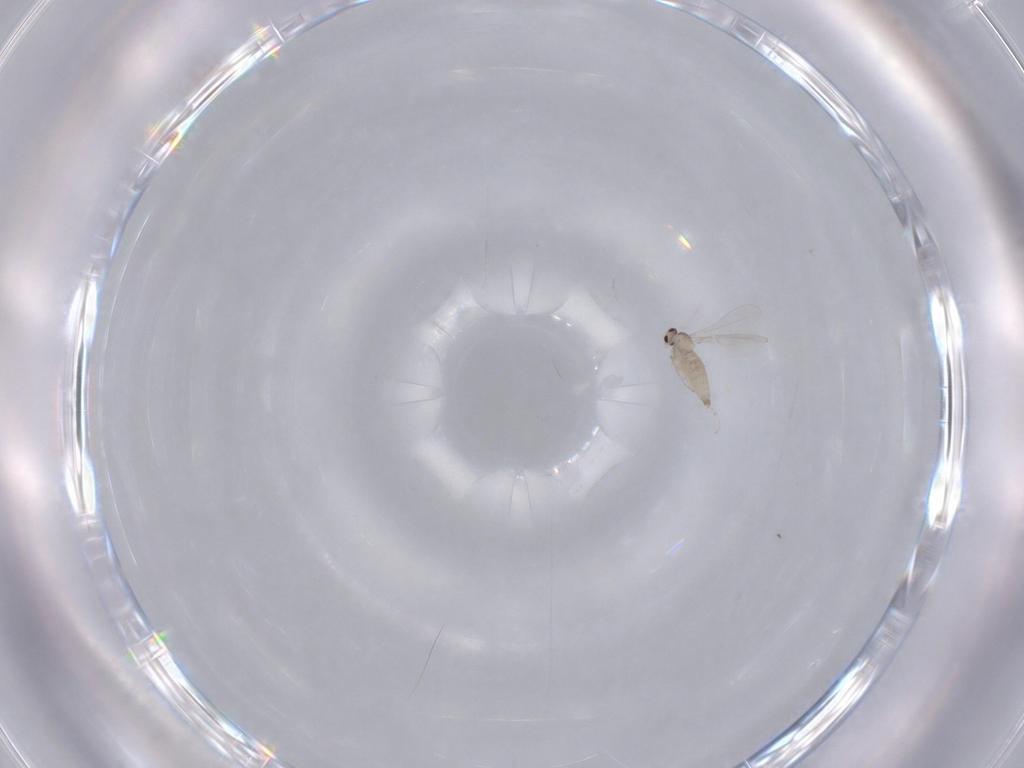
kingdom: Animalia
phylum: Arthropoda
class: Insecta
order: Diptera
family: Cecidomyiidae
